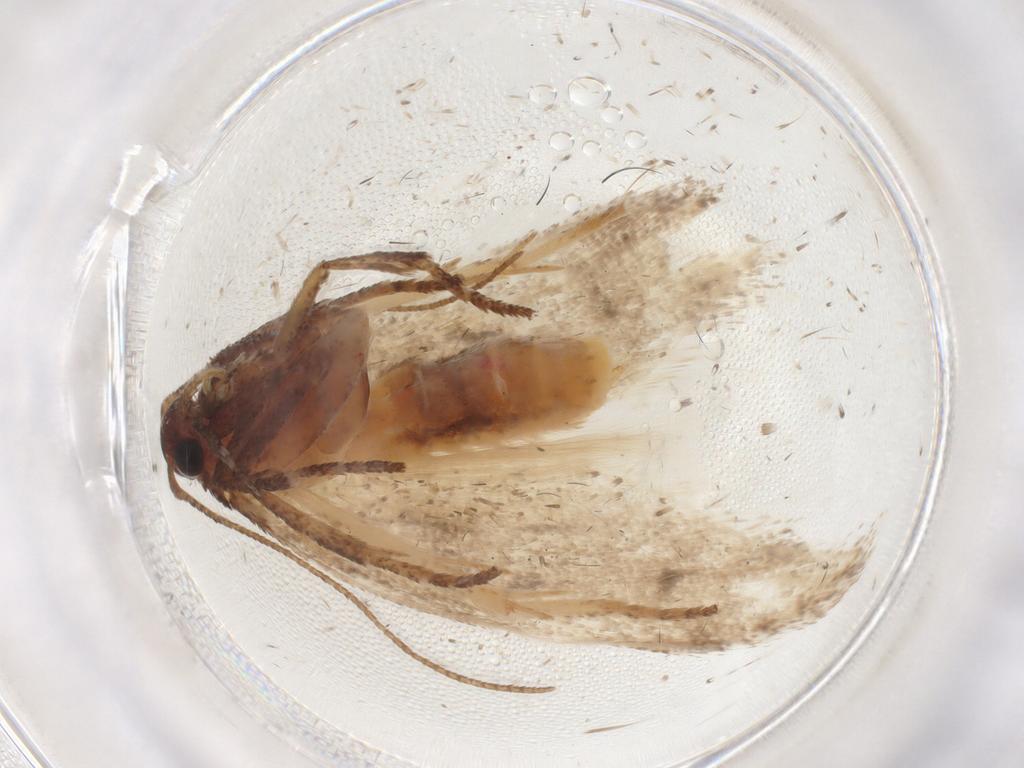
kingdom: Animalia
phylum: Arthropoda
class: Insecta
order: Lepidoptera
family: Cosmopterigidae
